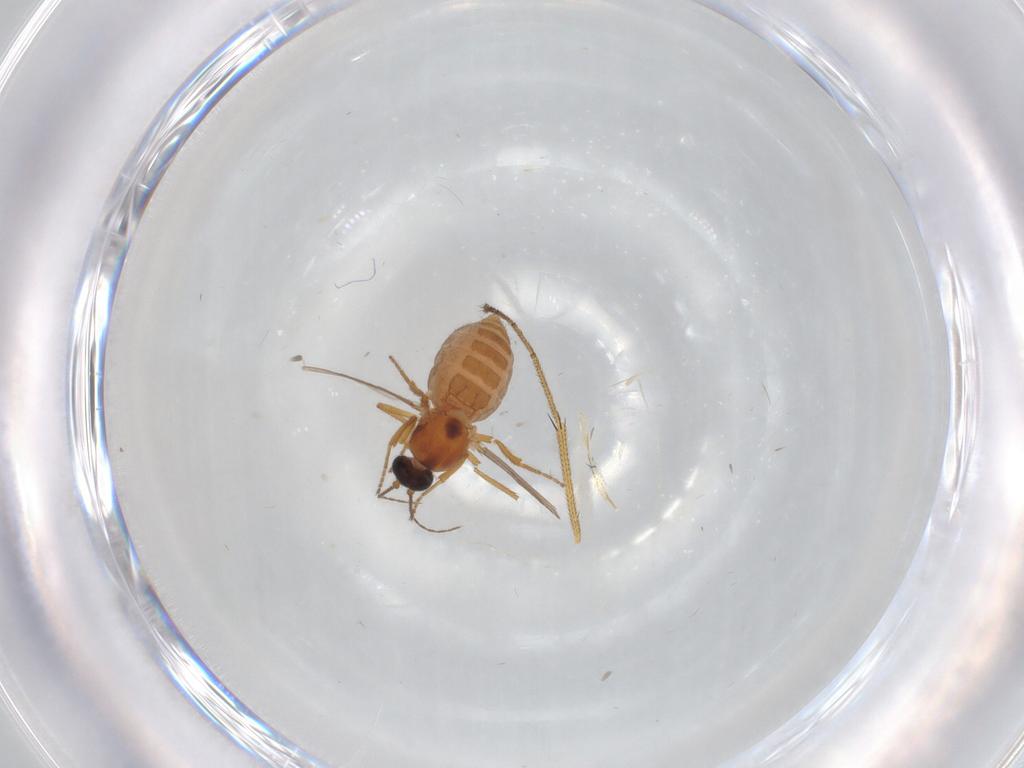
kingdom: Animalia
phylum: Arthropoda
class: Insecta
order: Diptera
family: Ceratopogonidae
